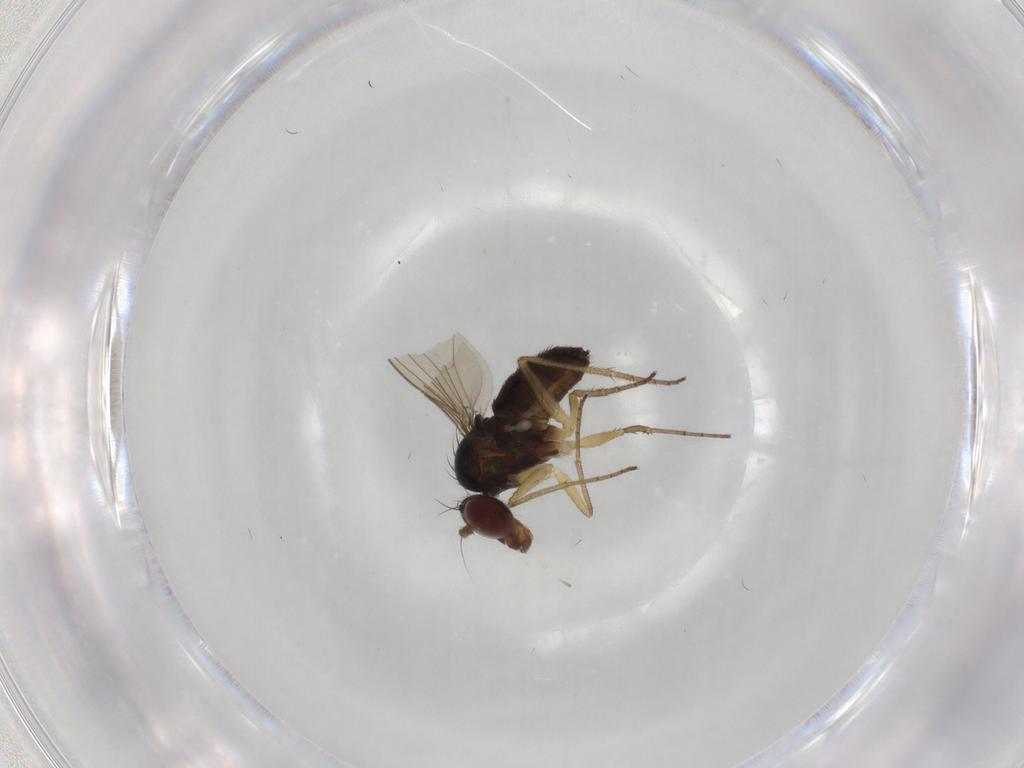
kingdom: Animalia
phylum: Arthropoda
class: Insecta
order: Diptera
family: Dolichopodidae
